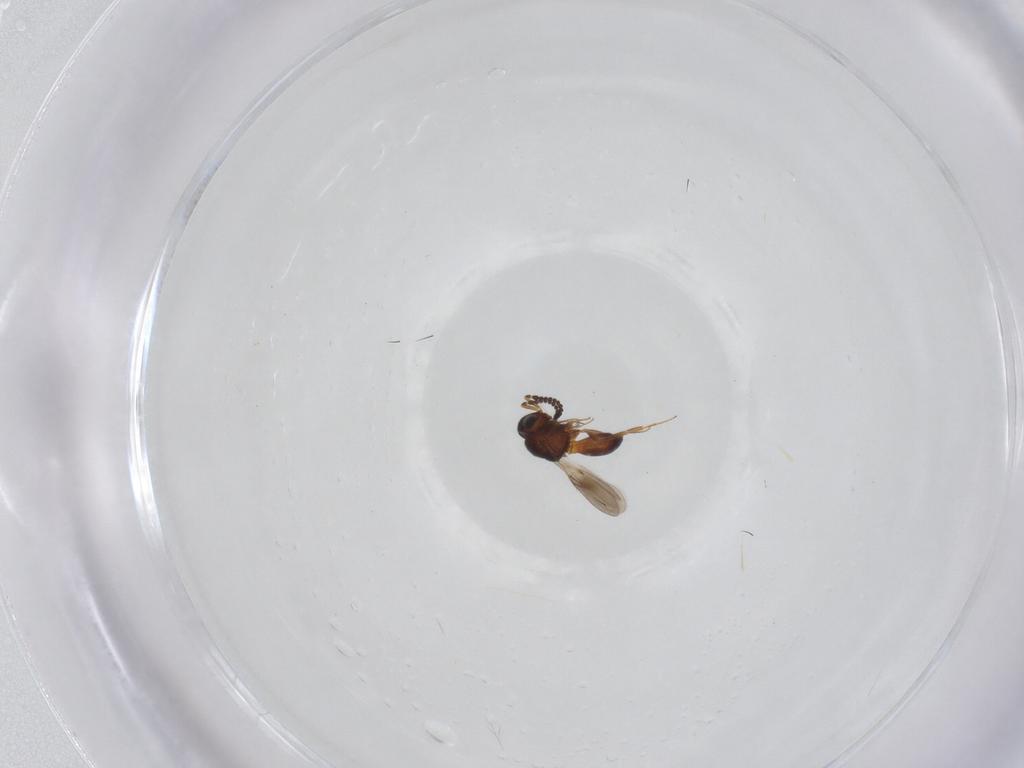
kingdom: Animalia
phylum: Arthropoda
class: Insecta
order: Hymenoptera
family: Scelionidae
